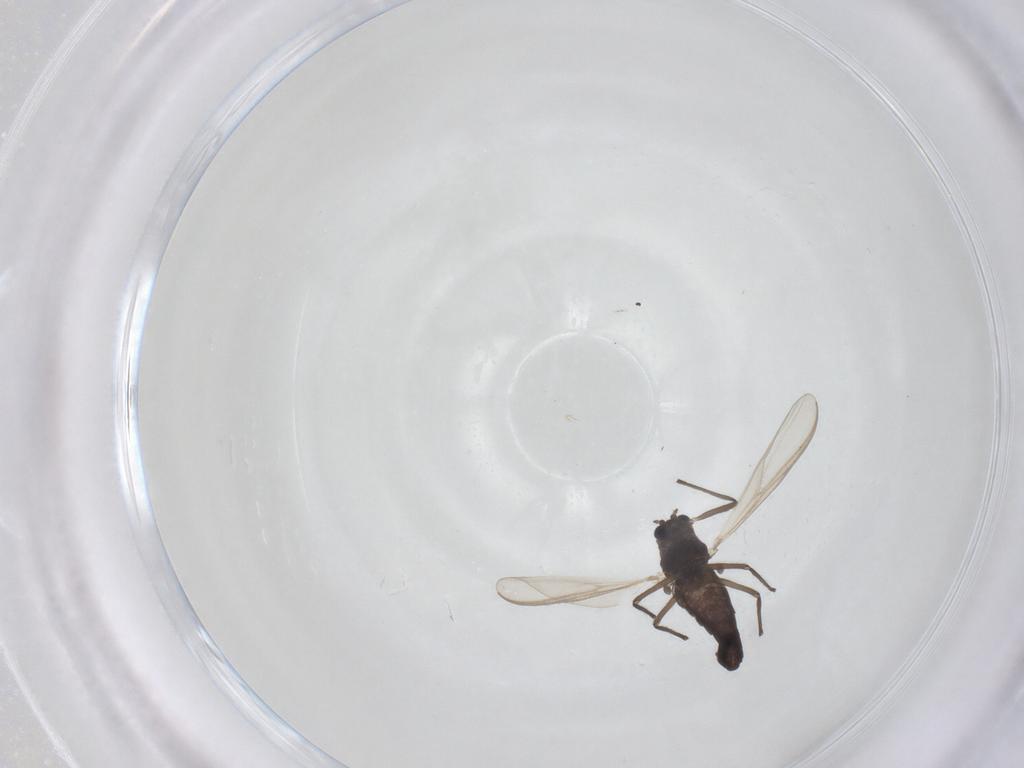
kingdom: Animalia
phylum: Arthropoda
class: Insecta
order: Diptera
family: Chironomidae
